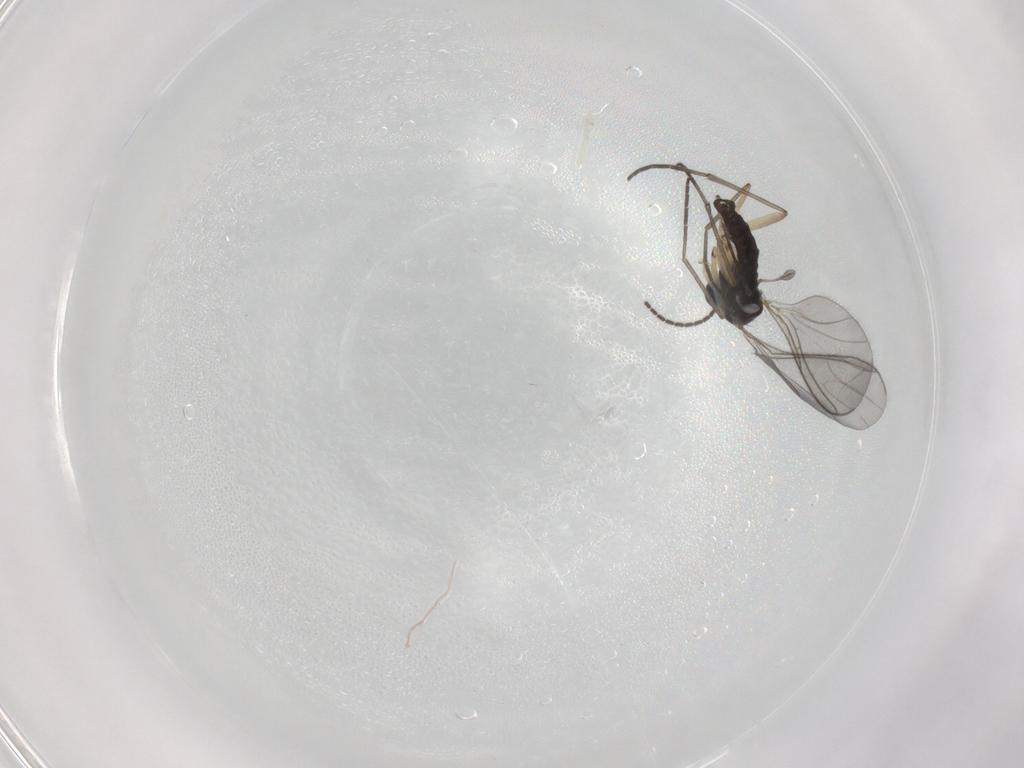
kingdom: Animalia
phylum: Arthropoda
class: Insecta
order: Diptera
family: Sciaridae
